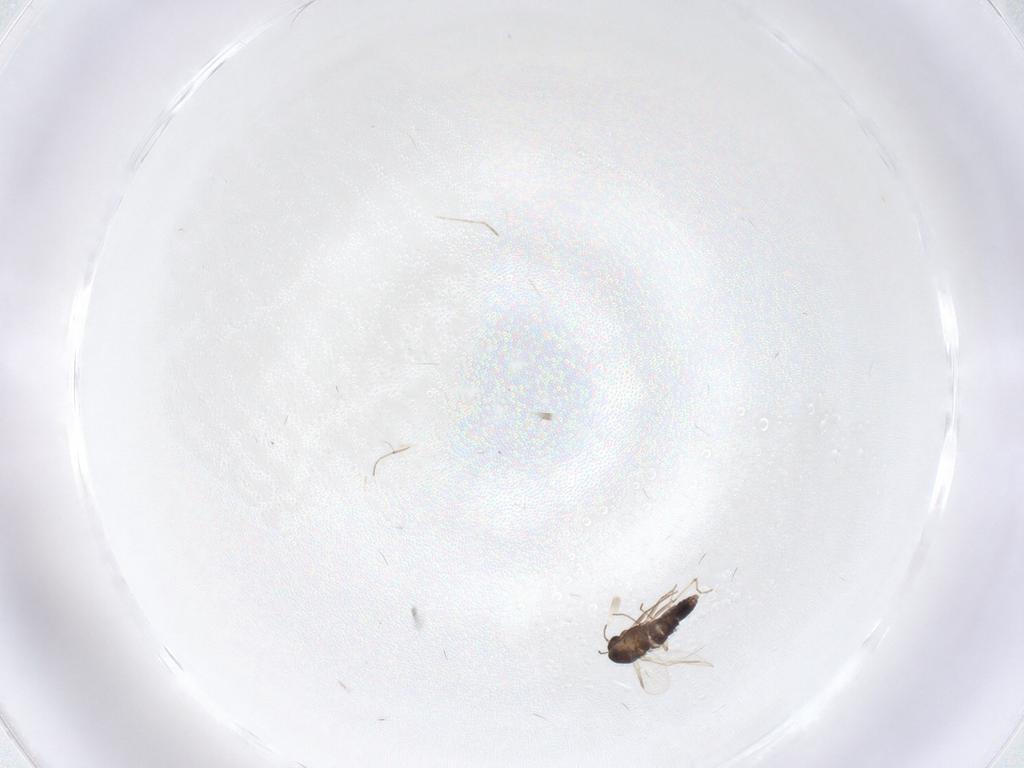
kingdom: Animalia
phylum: Arthropoda
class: Insecta
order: Diptera
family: Chironomidae
